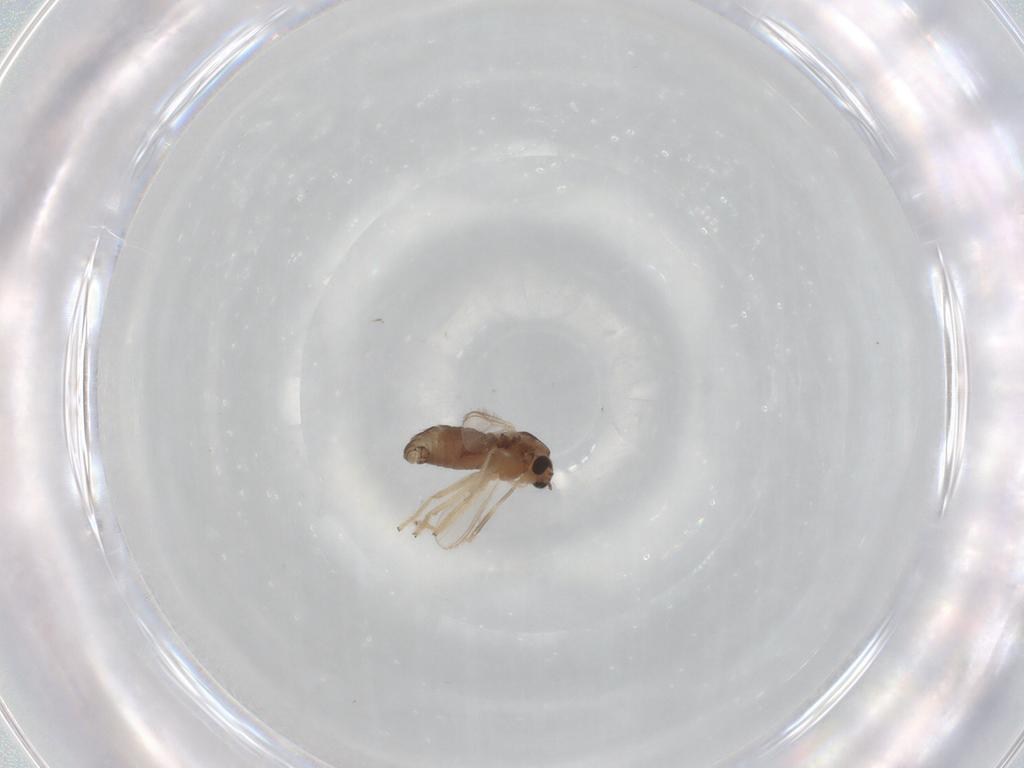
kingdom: Animalia
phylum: Arthropoda
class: Insecta
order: Diptera
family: Chironomidae
